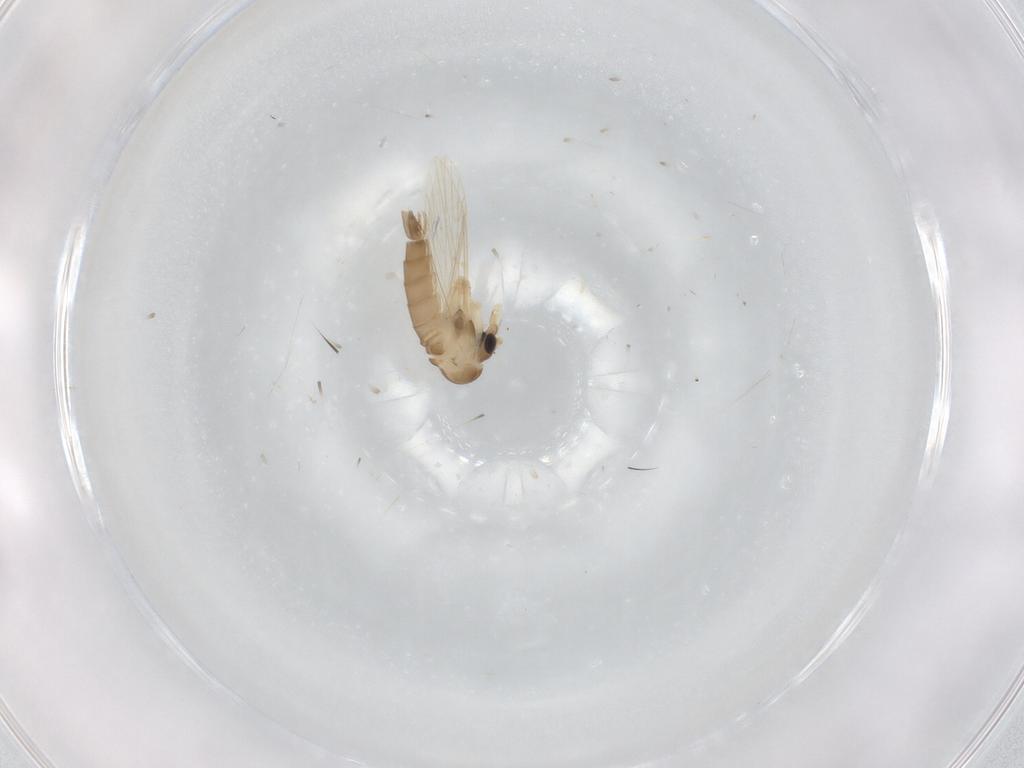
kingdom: Animalia
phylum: Arthropoda
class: Insecta
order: Diptera
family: Psychodidae
